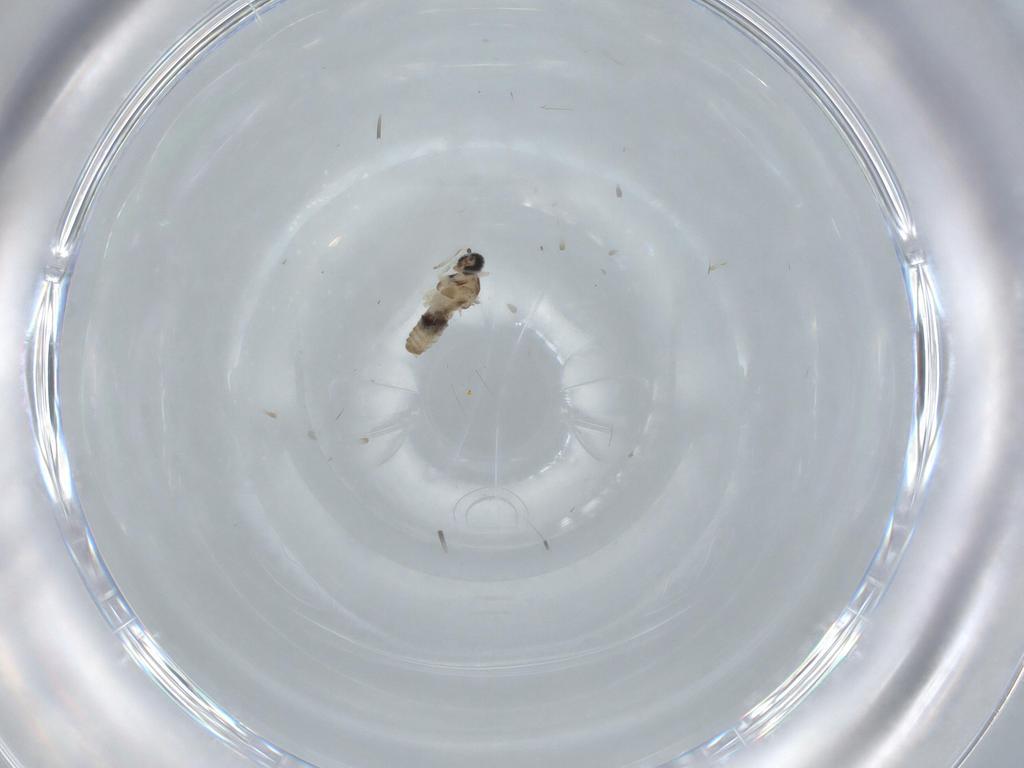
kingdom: Animalia
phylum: Arthropoda
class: Insecta
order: Diptera
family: Cecidomyiidae
